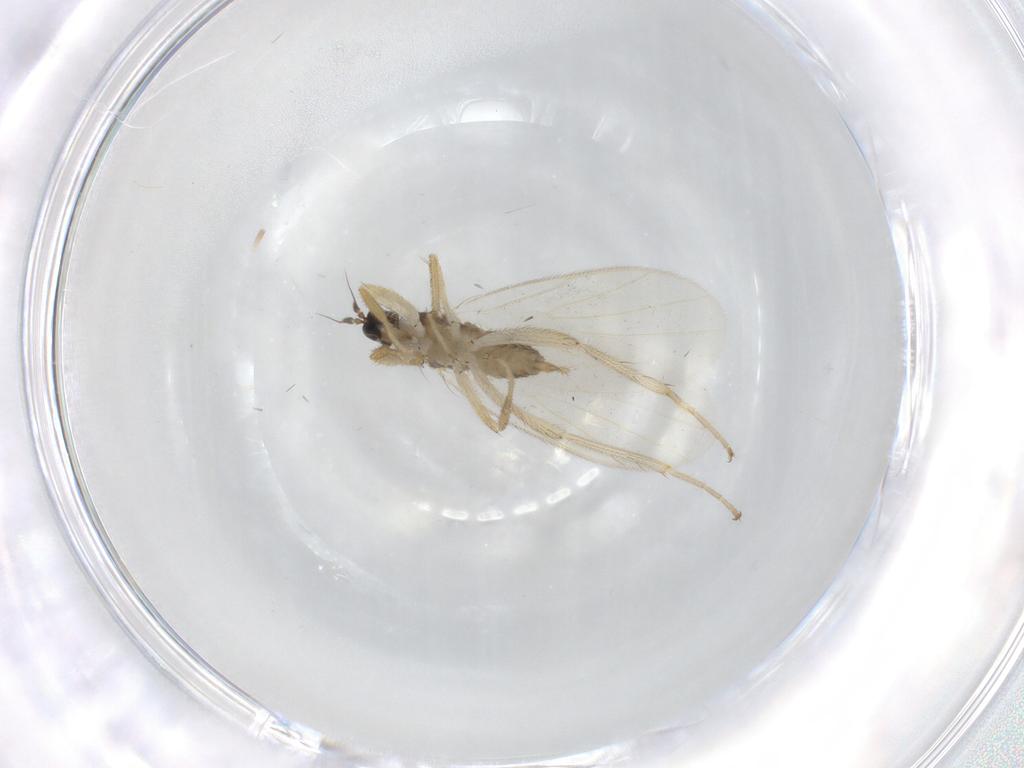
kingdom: Animalia
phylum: Arthropoda
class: Insecta
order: Diptera
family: Hybotidae
